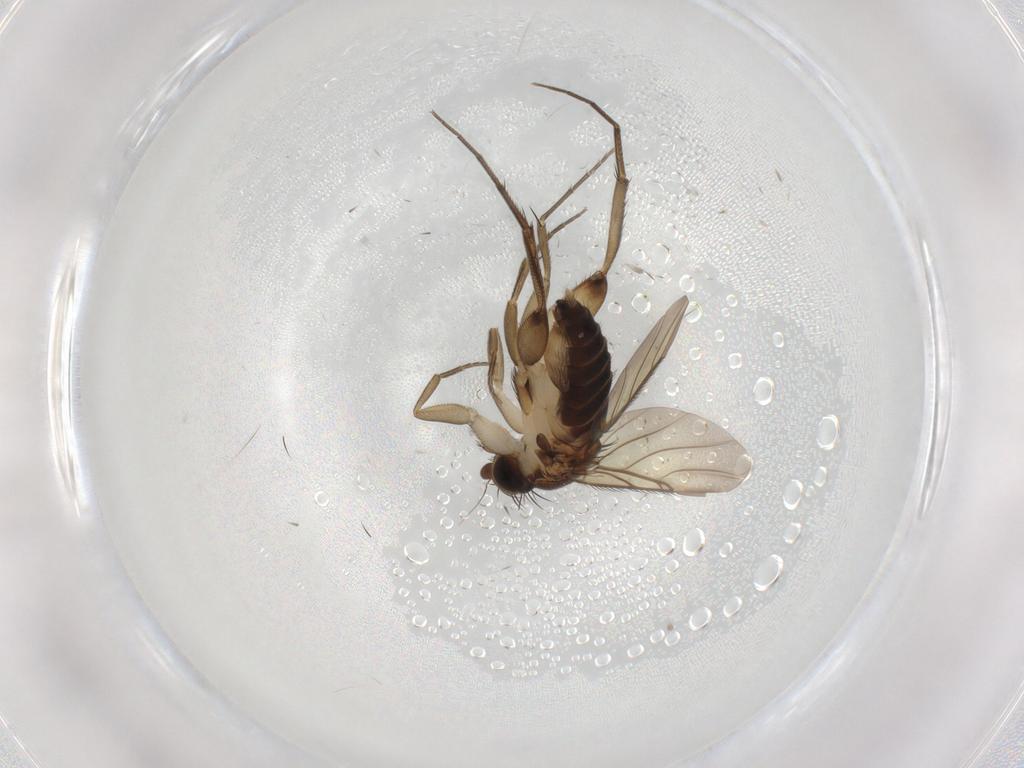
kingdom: Animalia
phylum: Arthropoda
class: Insecta
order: Diptera
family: Phoridae
